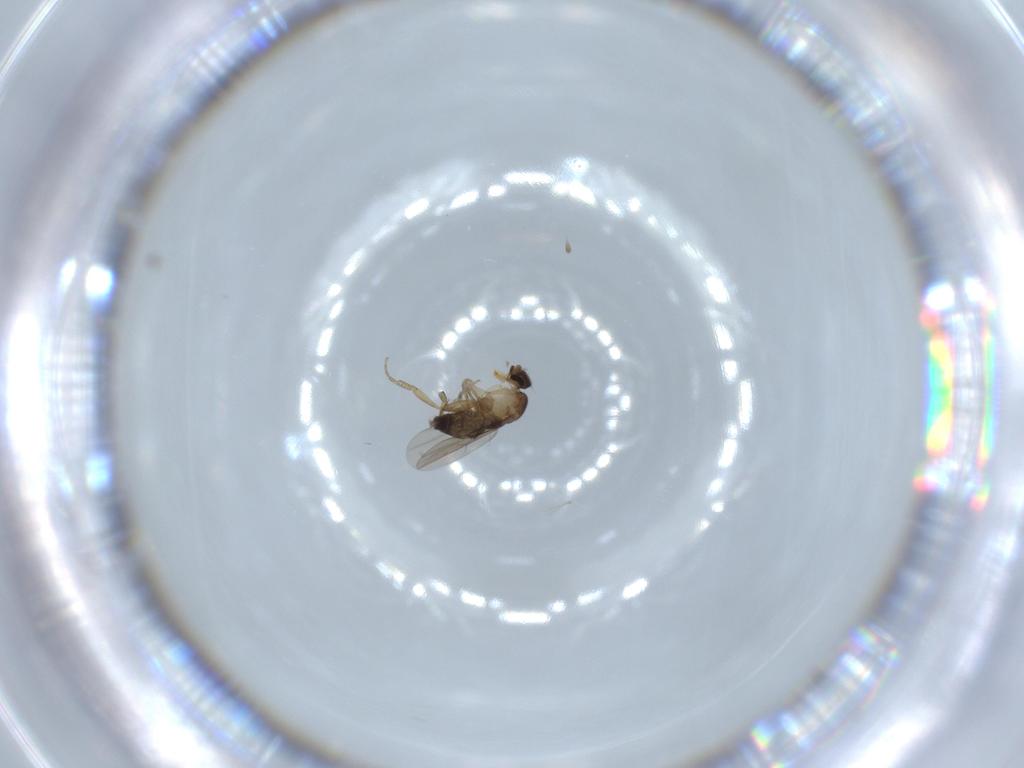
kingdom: Animalia
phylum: Arthropoda
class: Insecta
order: Diptera
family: Phoridae
